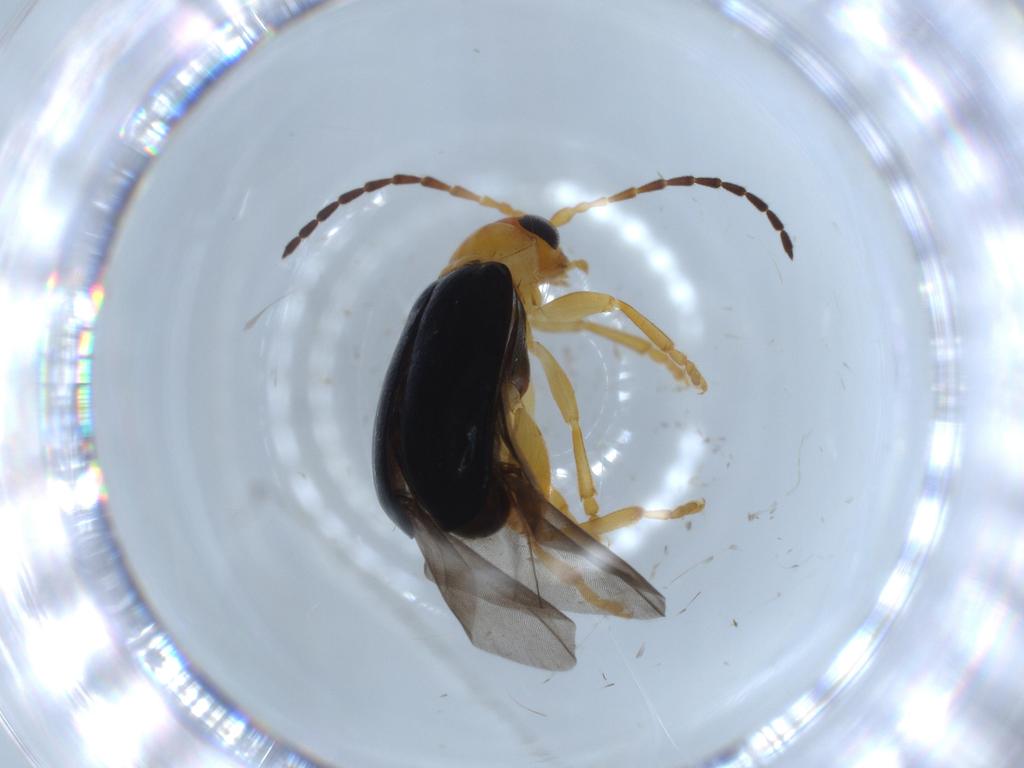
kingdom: Animalia
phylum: Arthropoda
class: Insecta
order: Coleoptera
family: Chrysomelidae
